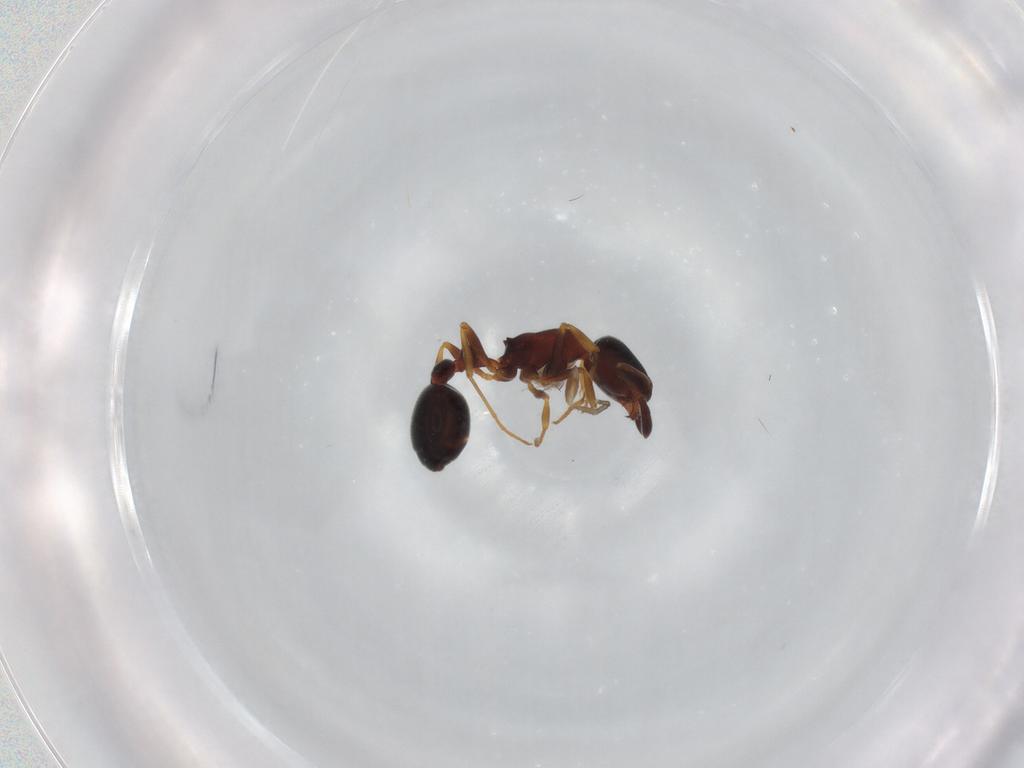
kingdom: Animalia
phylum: Arthropoda
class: Insecta
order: Hymenoptera
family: Formicidae
